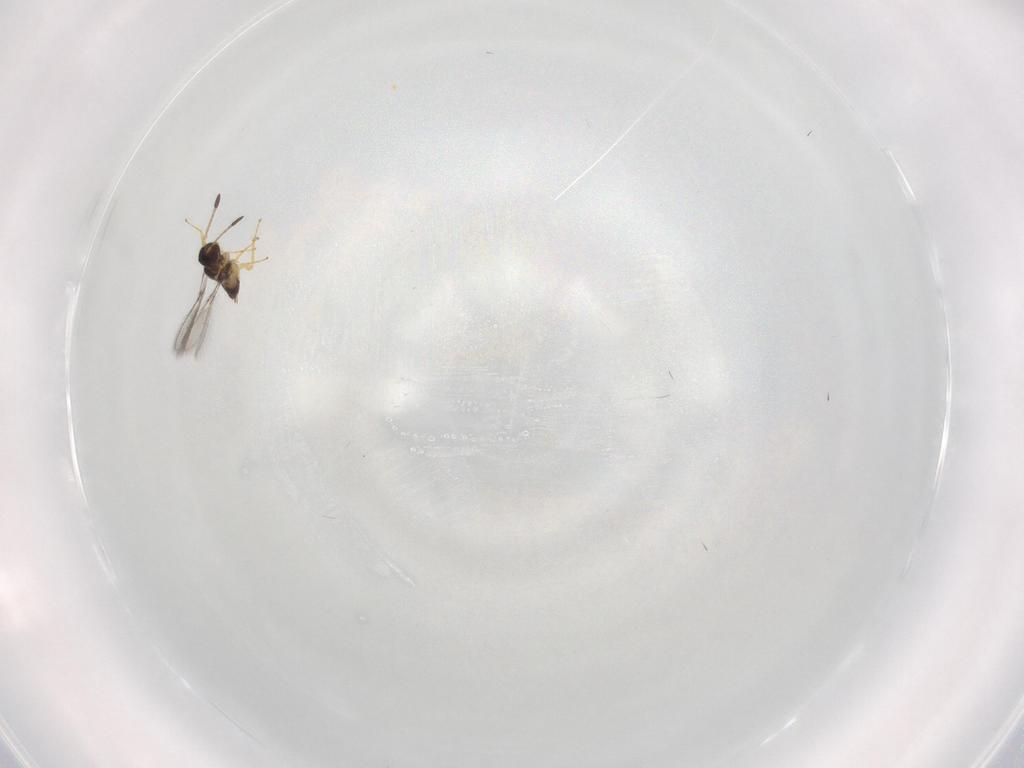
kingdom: Animalia
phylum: Arthropoda
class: Insecta
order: Hymenoptera
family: Mymaridae
